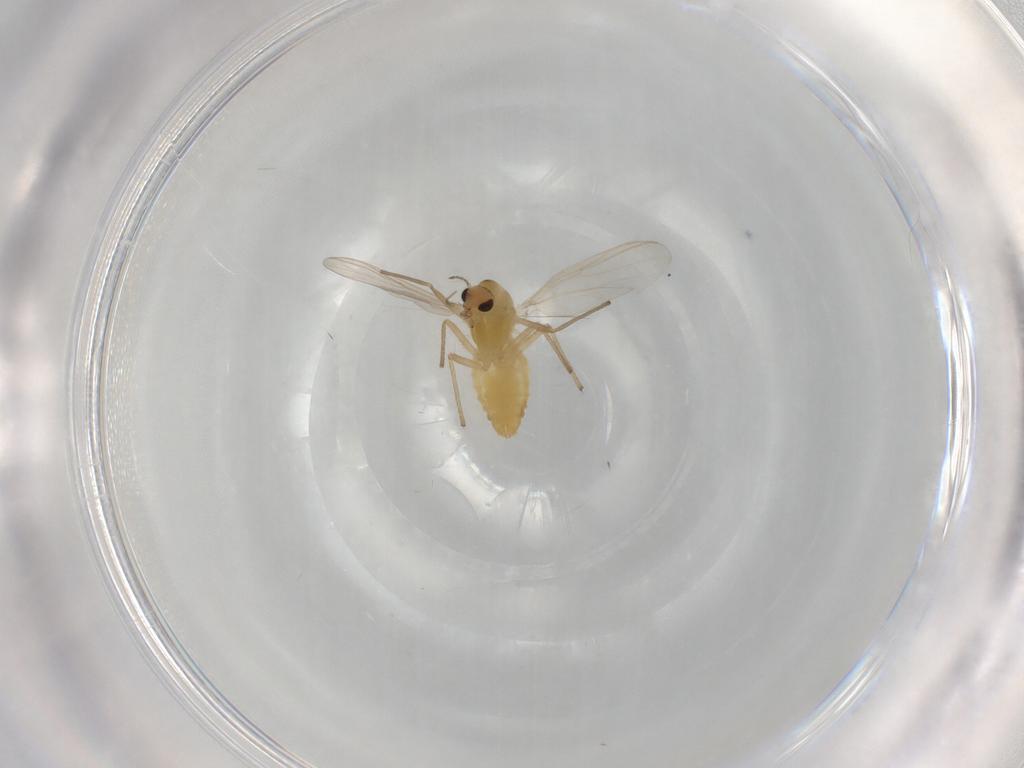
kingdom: Animalia
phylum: Arthropoda
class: Insecta
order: Diptera
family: Chironomidae
